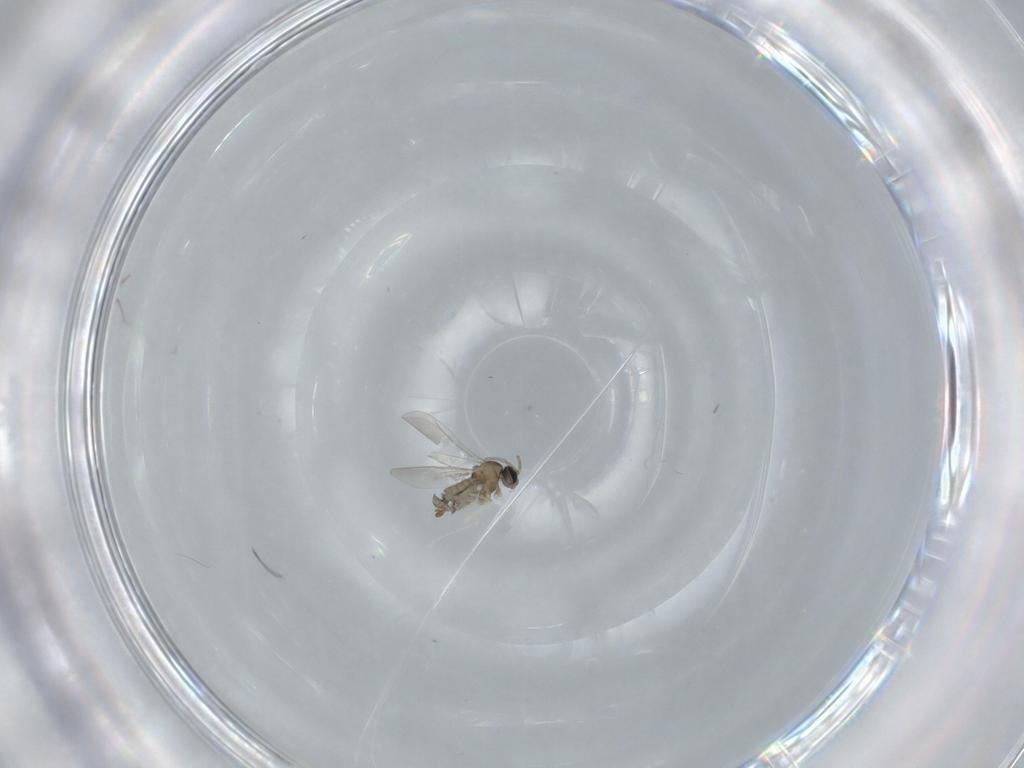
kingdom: Animalia
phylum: Arthropoda
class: Insecta
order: Diptera
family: Cecidomyiidae
